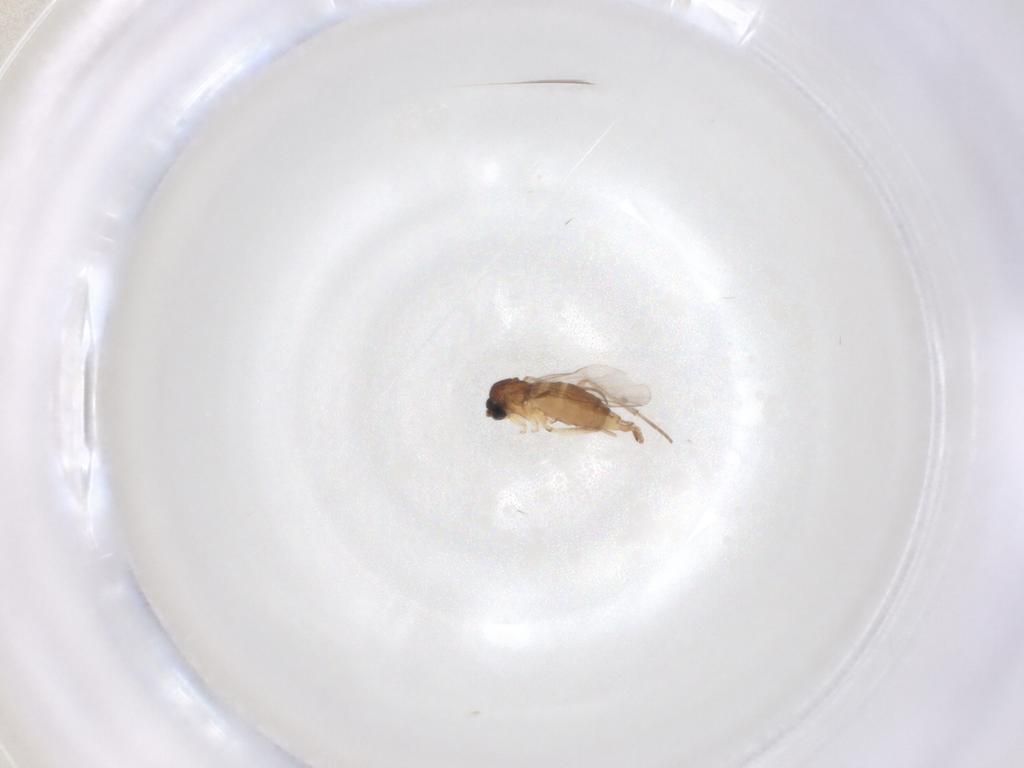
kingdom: Animalia
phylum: Arthropoda
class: Insecta
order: Diptera
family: Sciaridae
